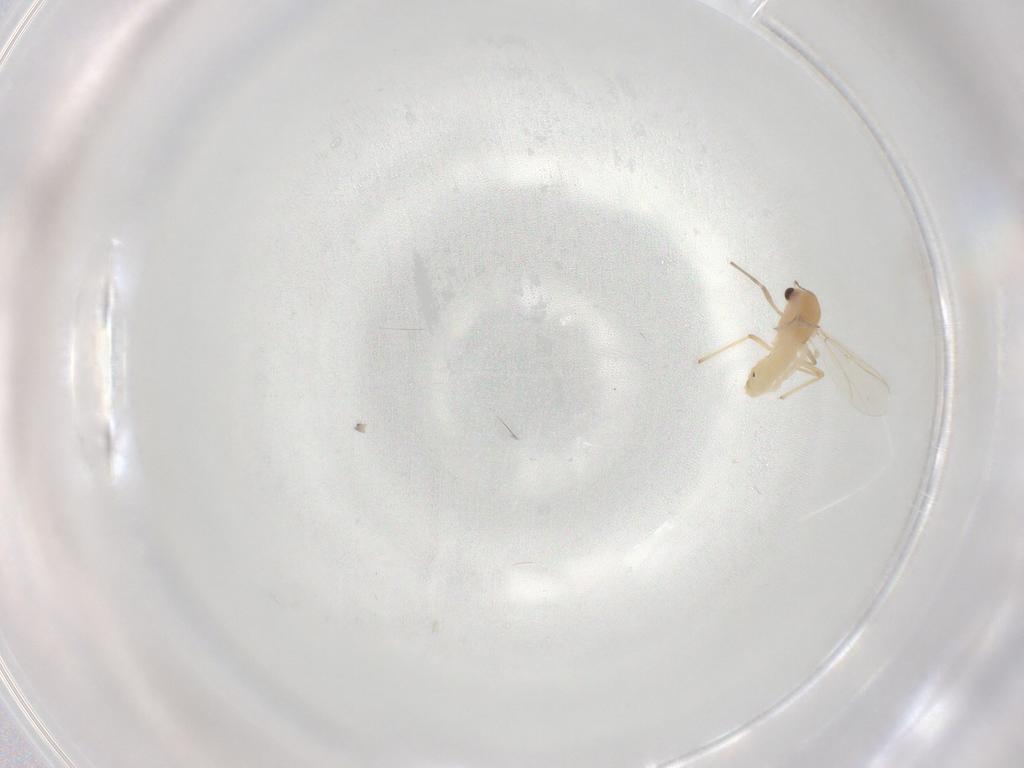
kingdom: Animalia
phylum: Arthropoda
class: Insecta
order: Diptera
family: Chironomidae
